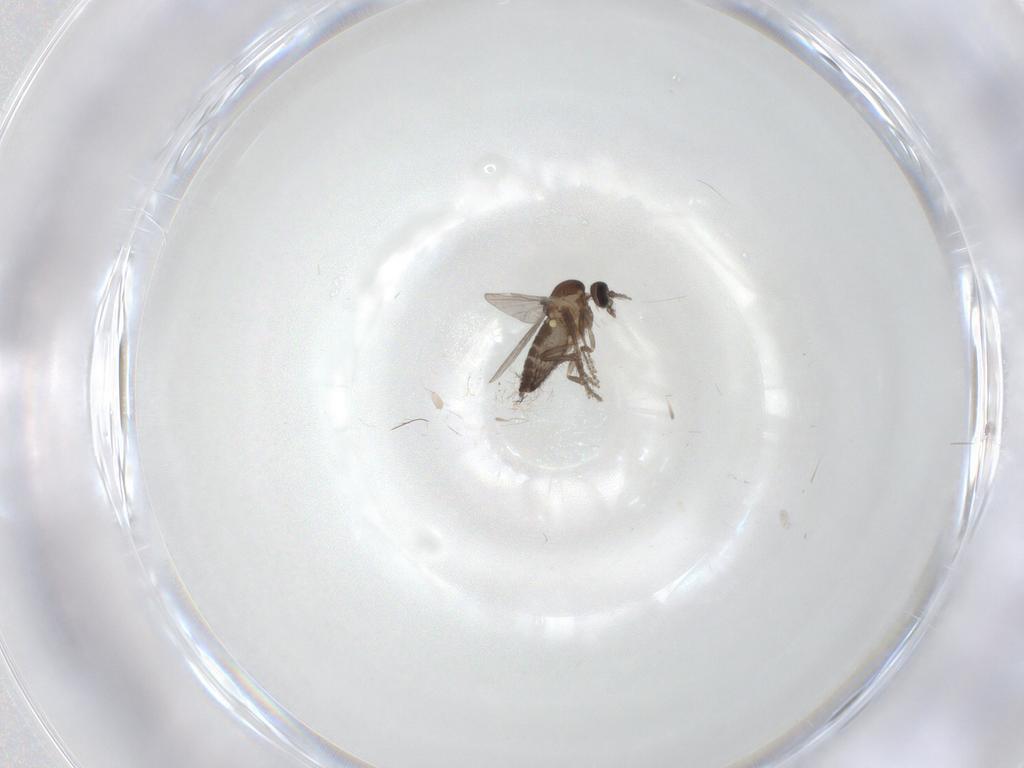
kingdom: Animalia
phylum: Arthropoda
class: Insecta
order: Diptera
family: Ceratopogonidae
